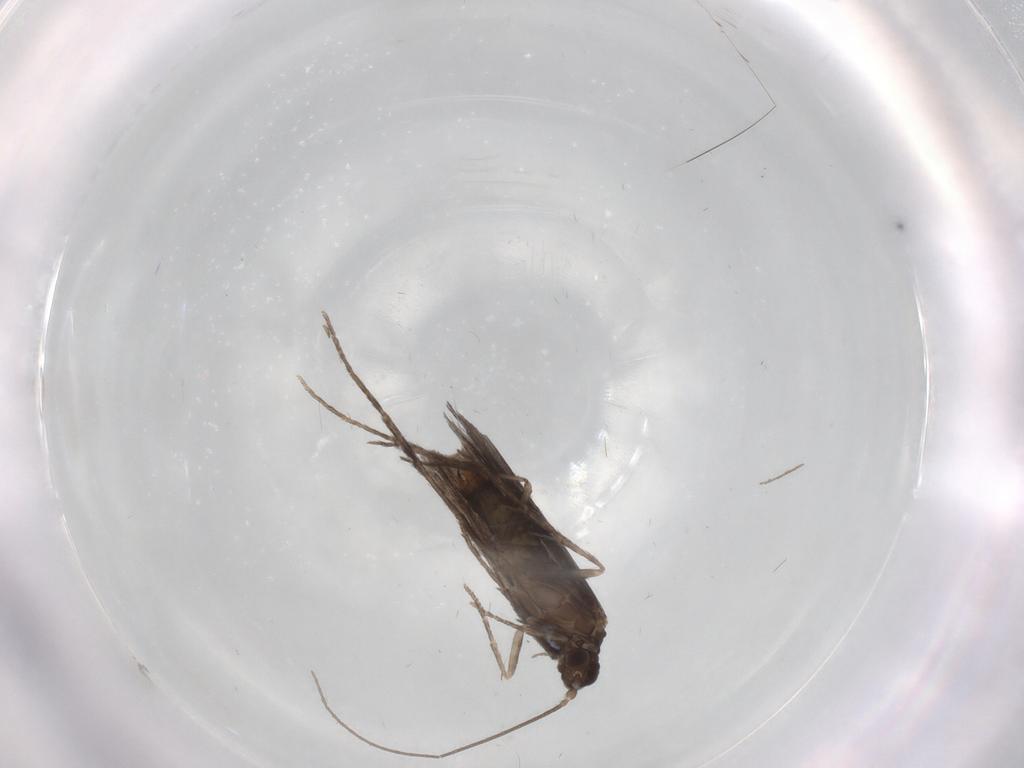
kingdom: Animalia
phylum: Arthropoda
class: Insecta
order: Trichoptera
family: Xiphocentronidae
